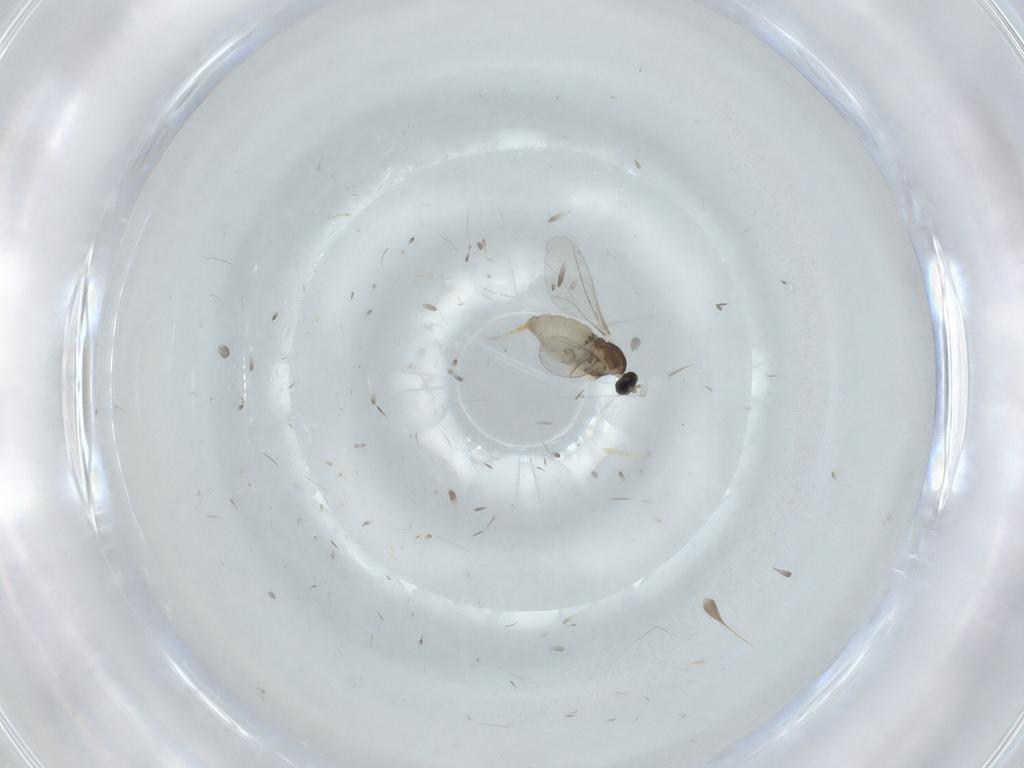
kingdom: Animalia
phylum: Arthropoda
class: Insecta
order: Diptera
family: Cecidomyiidae
